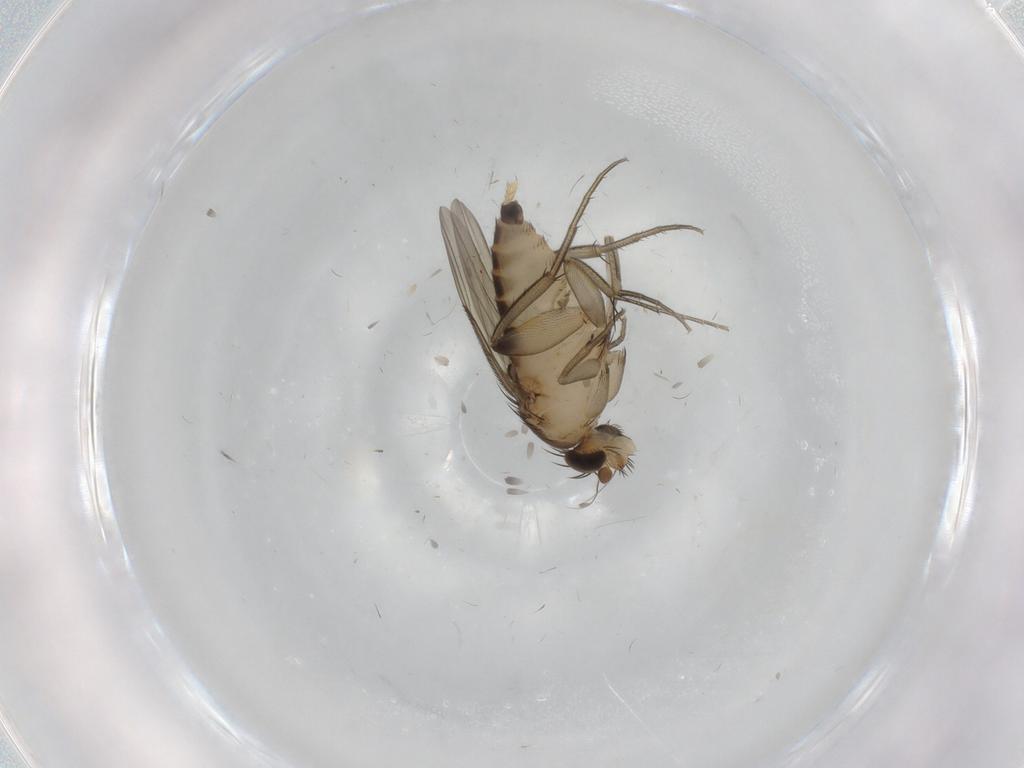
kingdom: Animalia
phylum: Arthropoda
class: Insecta
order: Diptera
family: Phoridae
